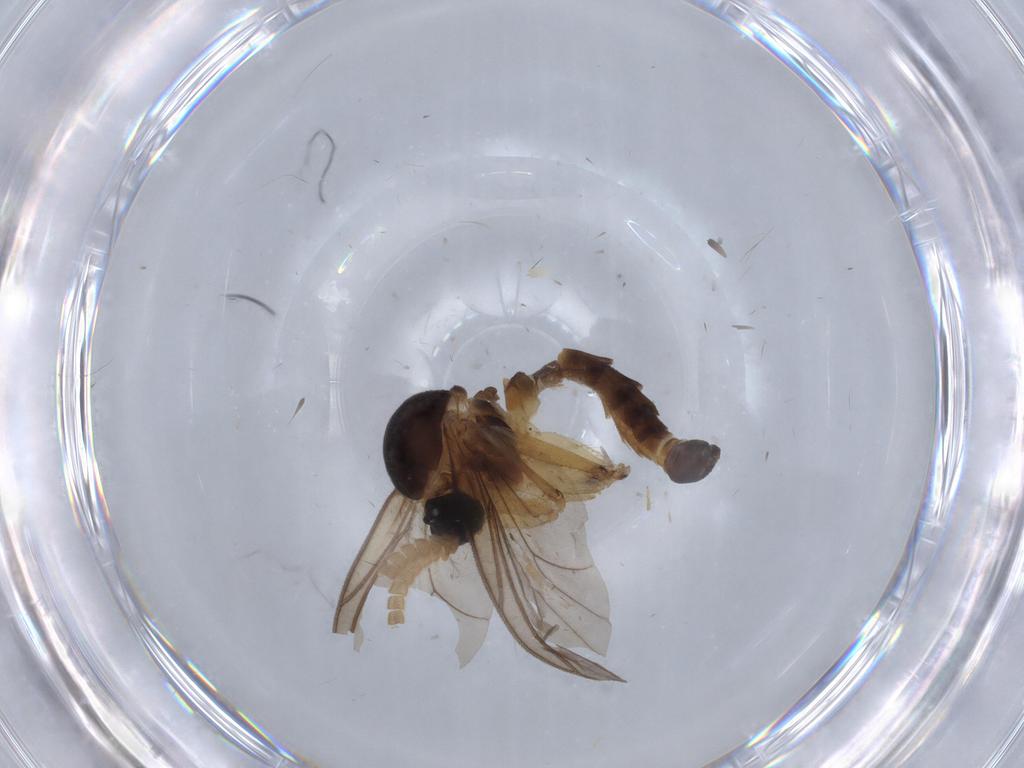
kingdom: Animalia
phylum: Arthropoda
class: Insecta
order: Diptera
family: Phoridae
